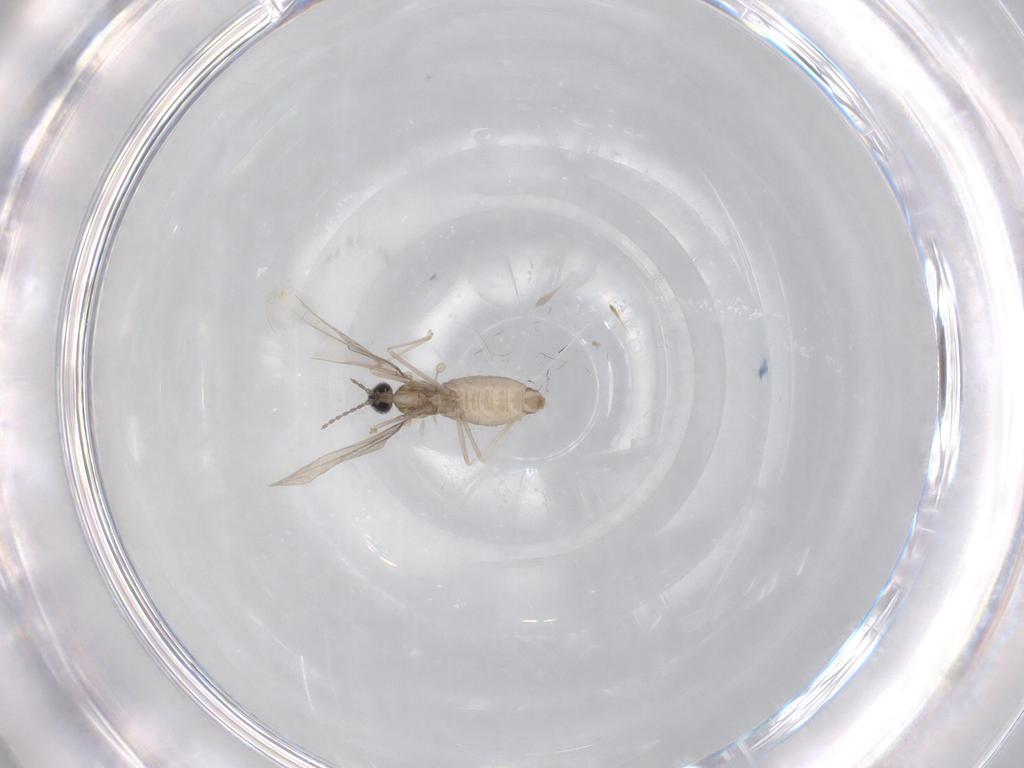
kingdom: Animalia
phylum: Arthropoda
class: Insecta
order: Diptera
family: Cecidomyiidae
